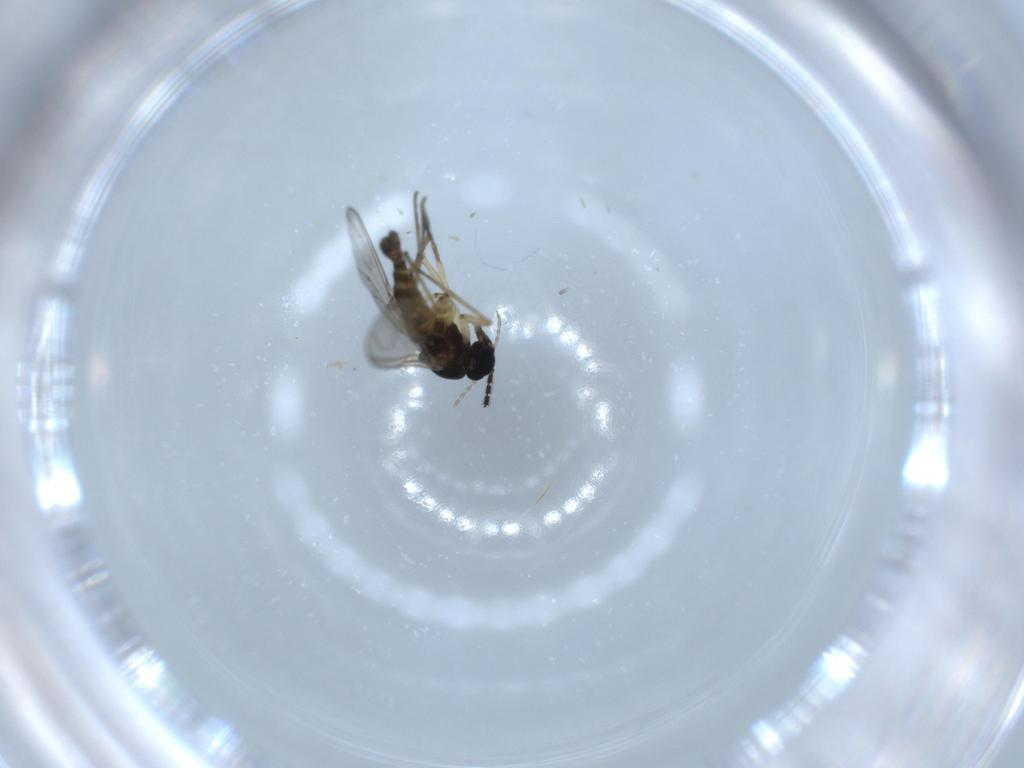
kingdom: Animalia
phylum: Arthropoda
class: Insecta
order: Diptera
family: Sciaridae
